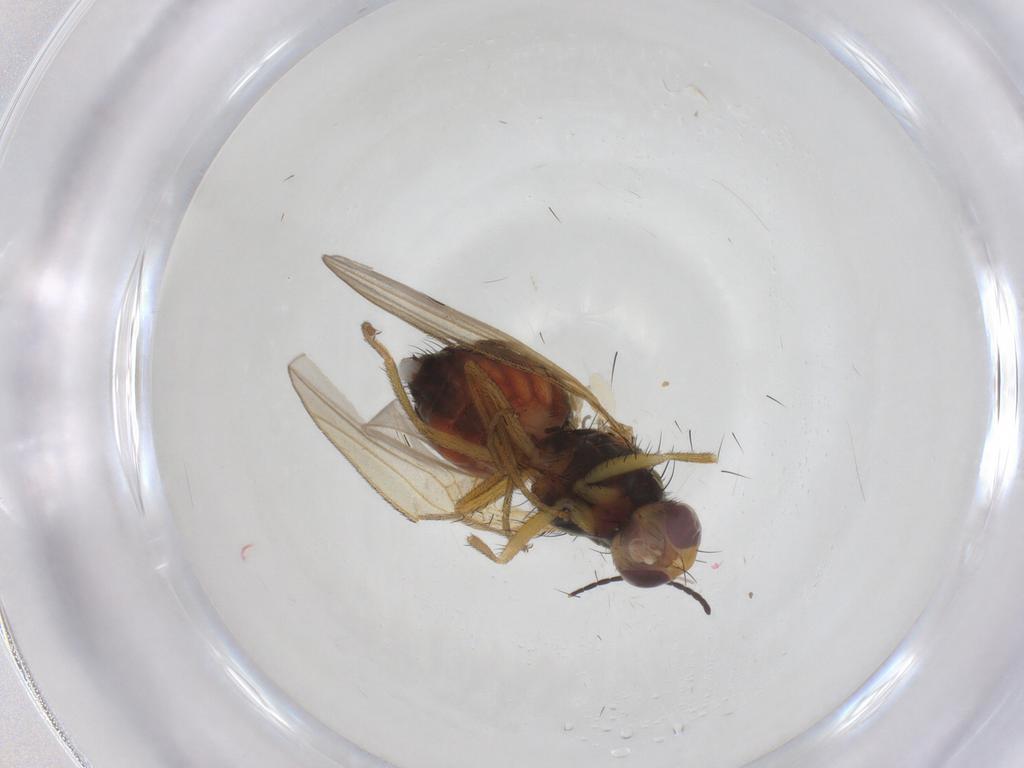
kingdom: Animalia
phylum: Arthropoda
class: Insecta
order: Diptera
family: Heleomyzidae
